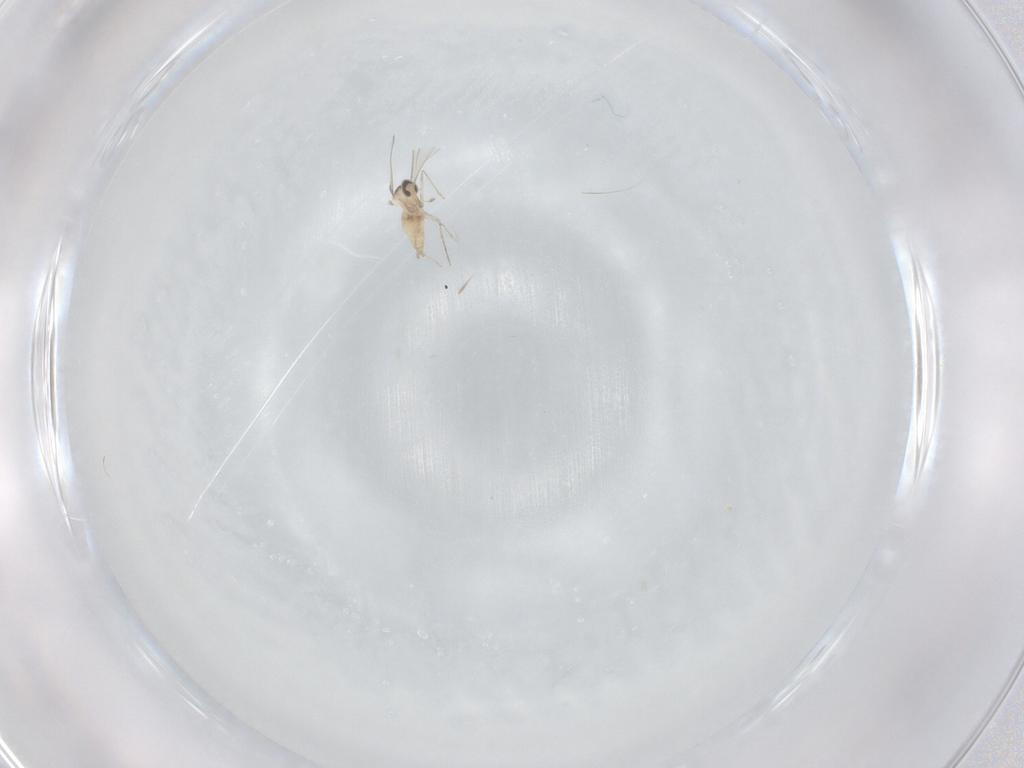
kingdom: Animalia
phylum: Arthropoda
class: Insecta
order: Diptera
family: Cecidomyiidae
